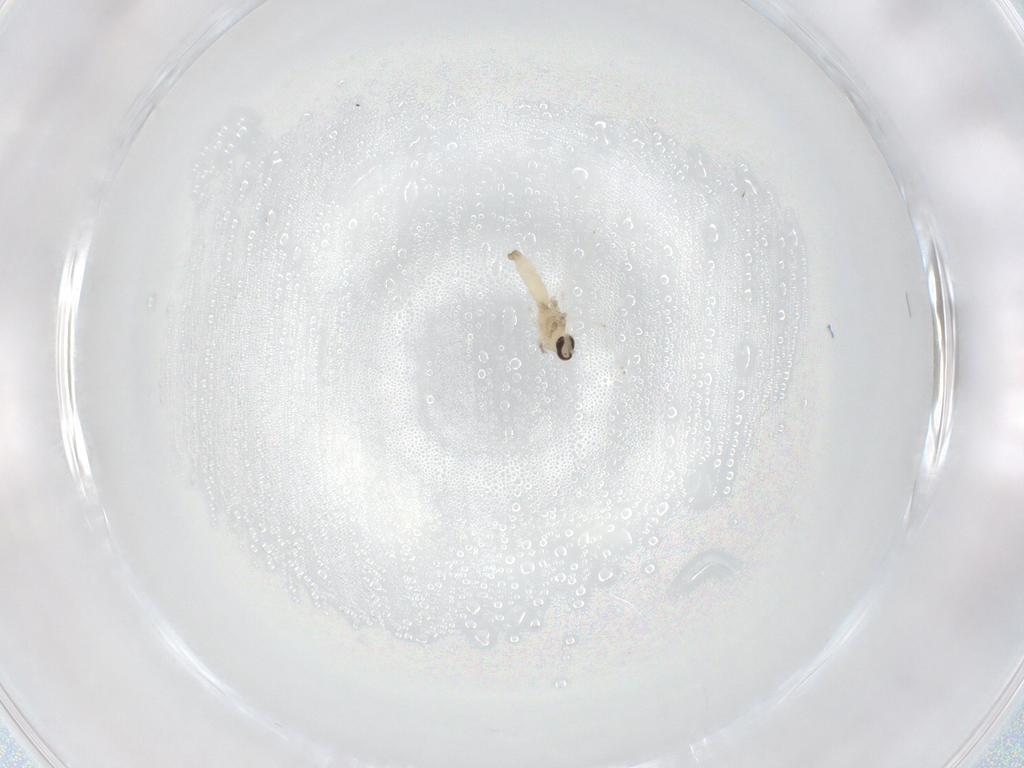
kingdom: Animalia
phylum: Arthropoda
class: Insecta
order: Diptera
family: Cecidomyiidae
